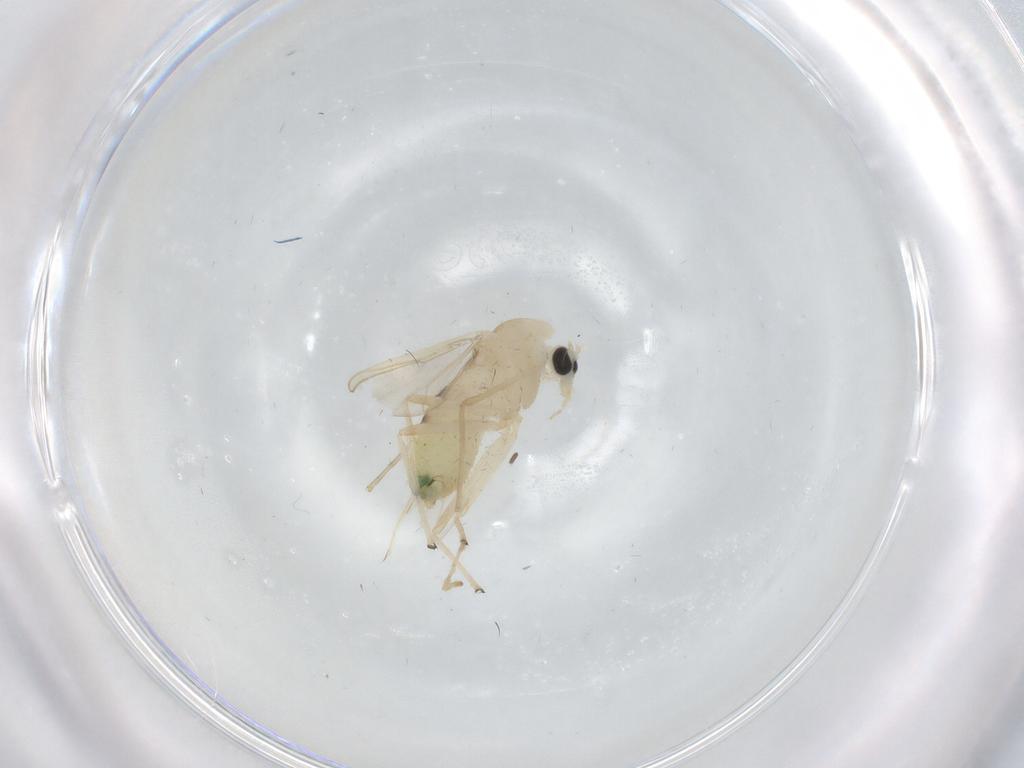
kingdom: Animalia
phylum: Arthropoda
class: Insecta
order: Diptera
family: Chironomidae
